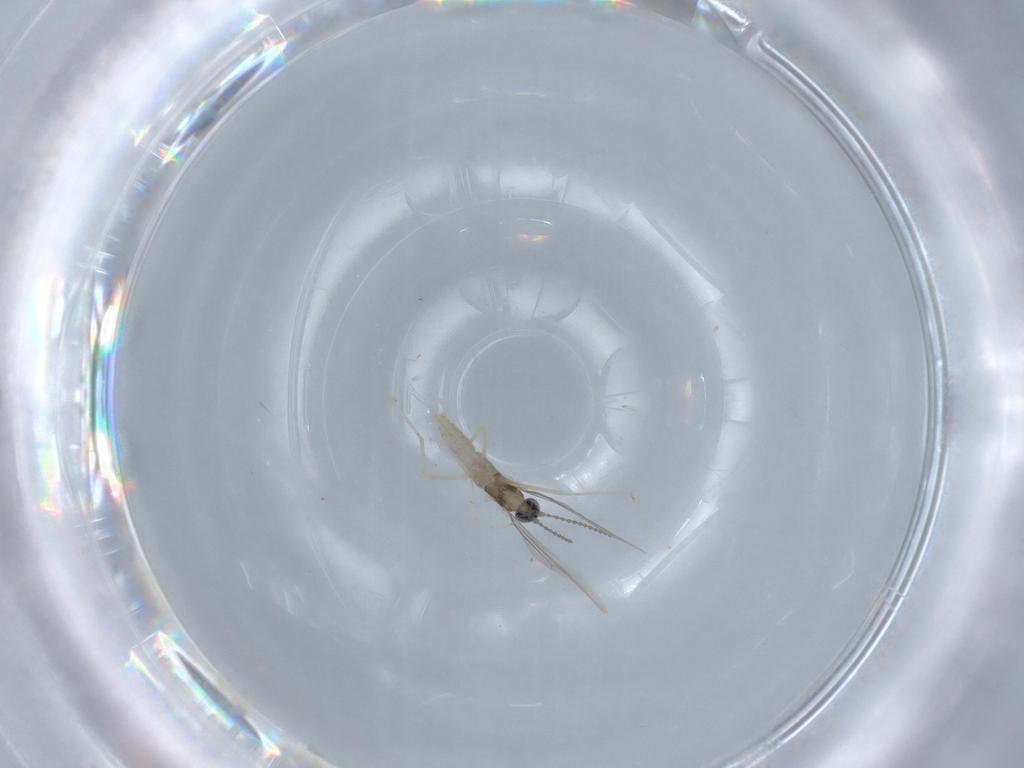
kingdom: Animalia
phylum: Arthropoda
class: Insecta
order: Diptera
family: Cecidomyiidae
